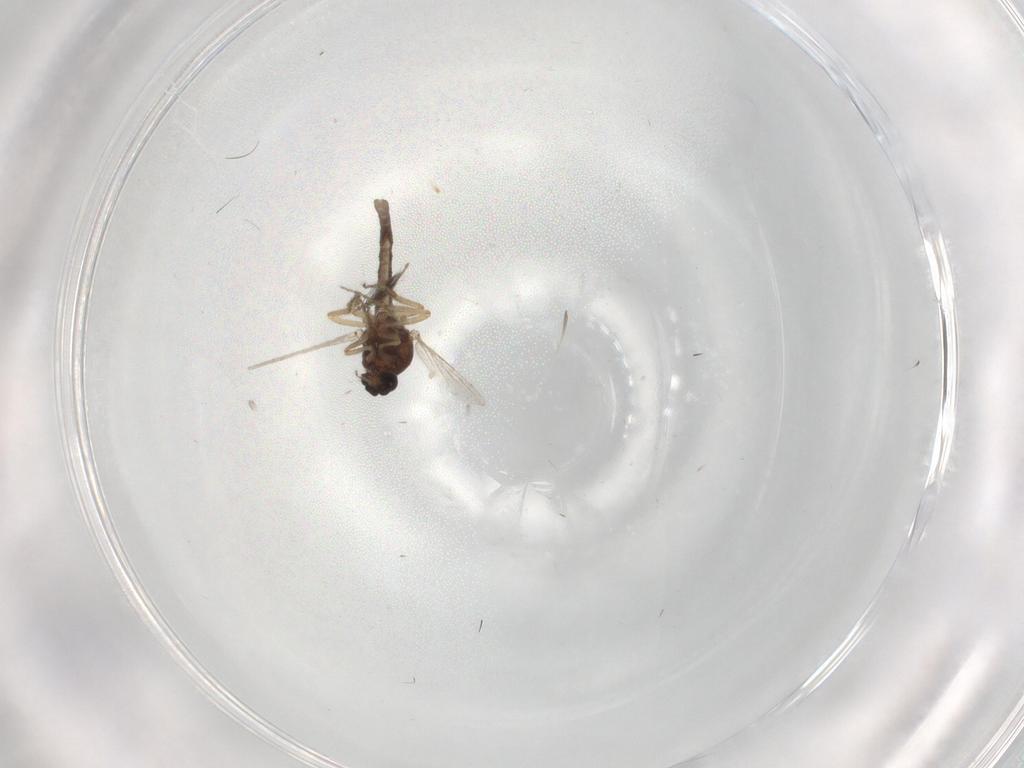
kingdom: Animalia
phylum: Arthropoda
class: Insecta
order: Diptera
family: Ceratopogonidae
